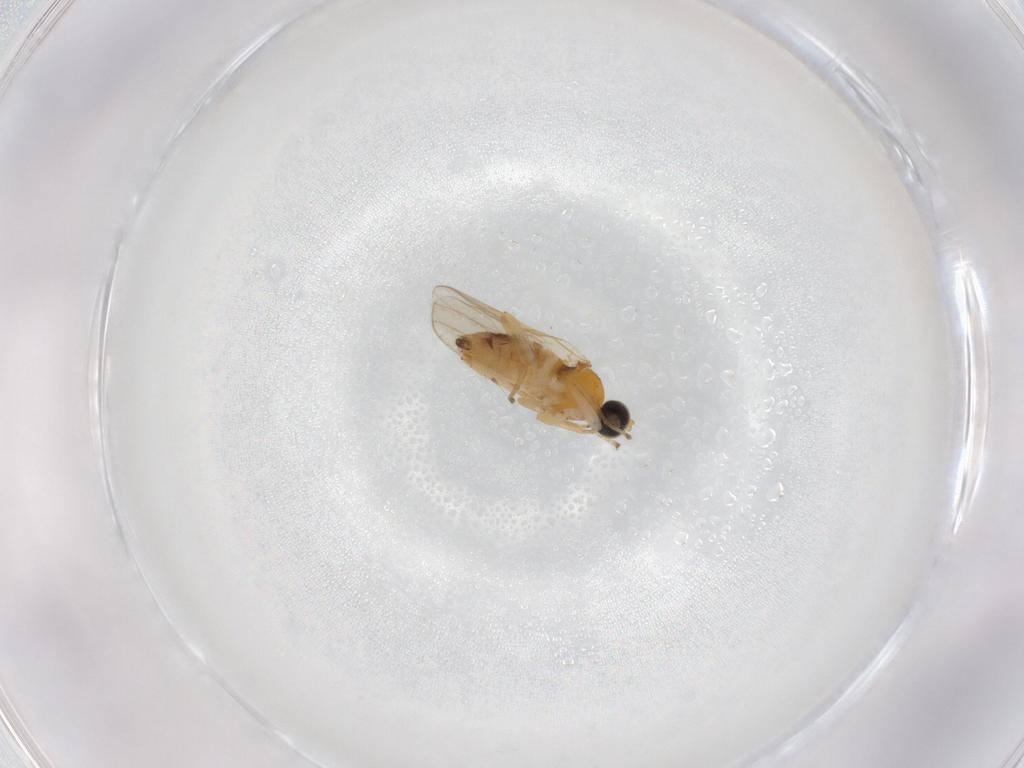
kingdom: Animalia
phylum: Arthropoda
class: Insecta
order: Diptera
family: Hybotidae
